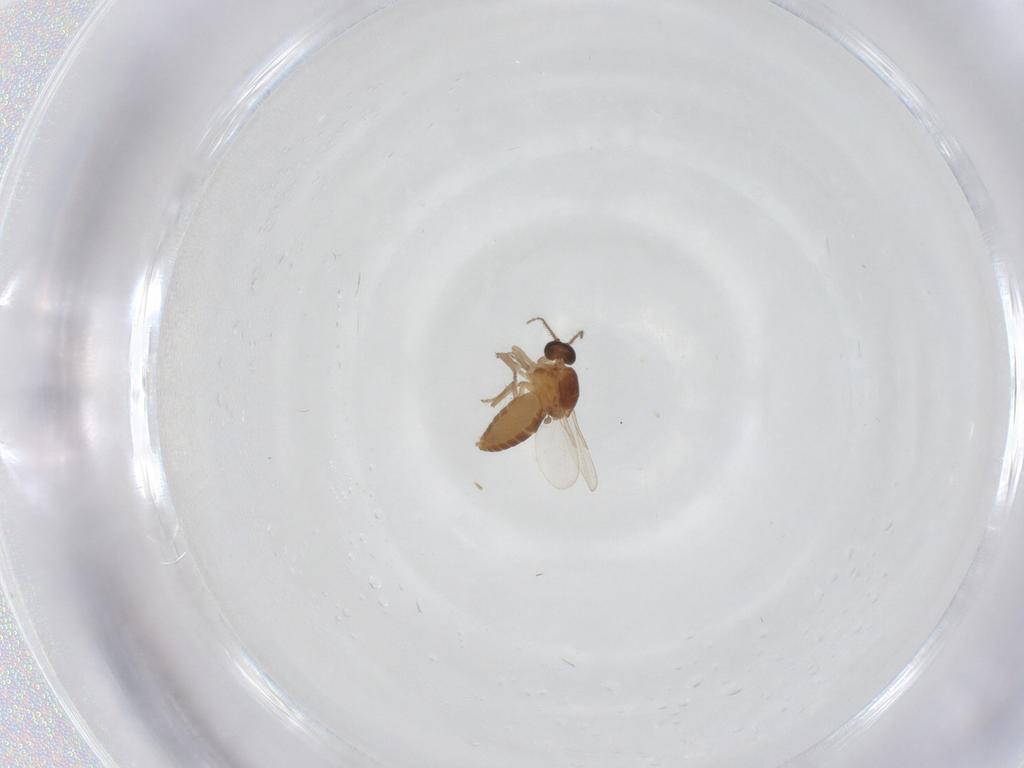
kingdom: Animalia
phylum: Arthropoda
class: Insecta
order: Diptera
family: Ceratopogonidae
